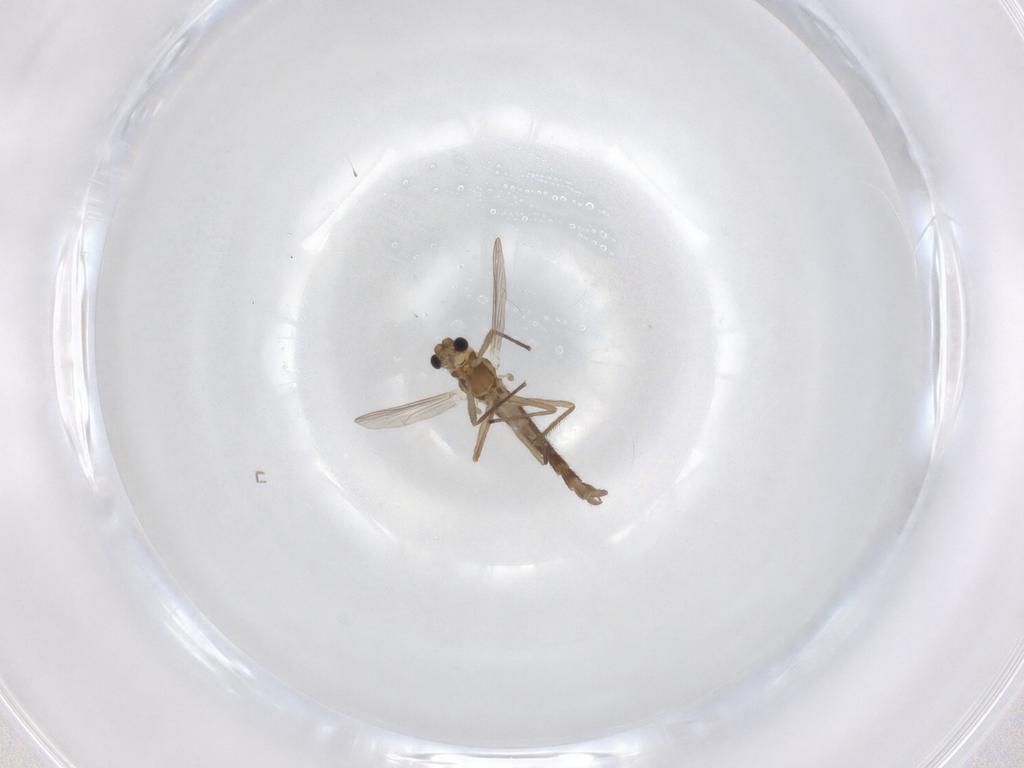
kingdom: Animalia
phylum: Arthropoda
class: Insecta
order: Diptera
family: Chironomidae
